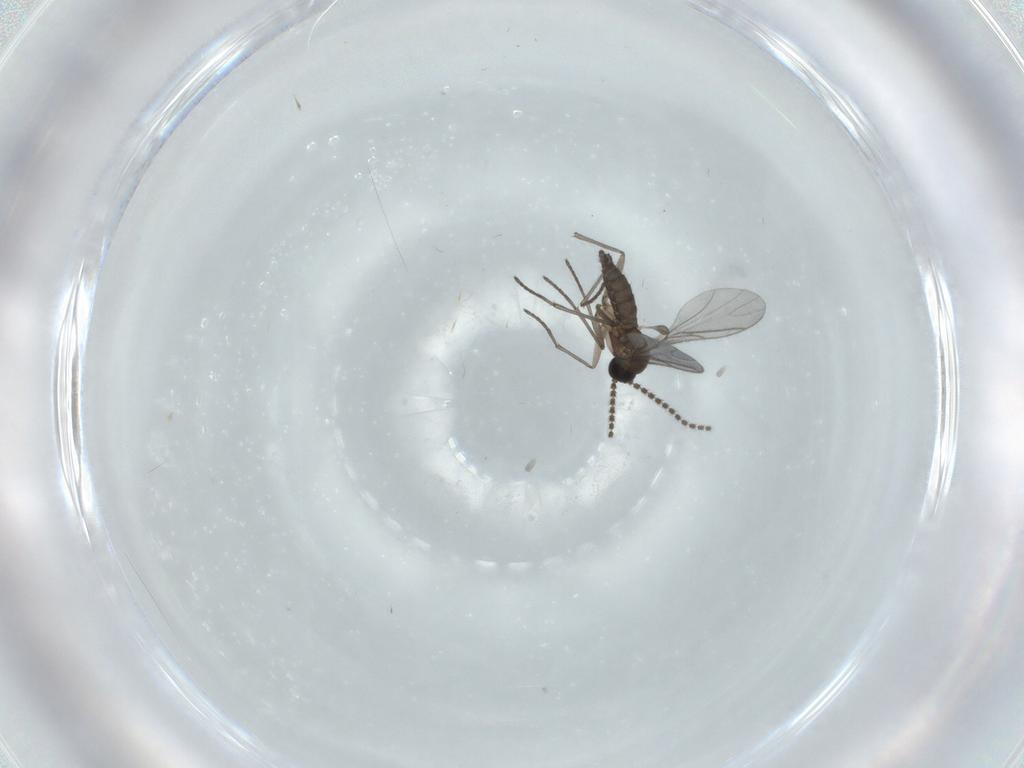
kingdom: Animalia
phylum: Arthropoda
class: Insecta
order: Diptera
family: Sciaridae
